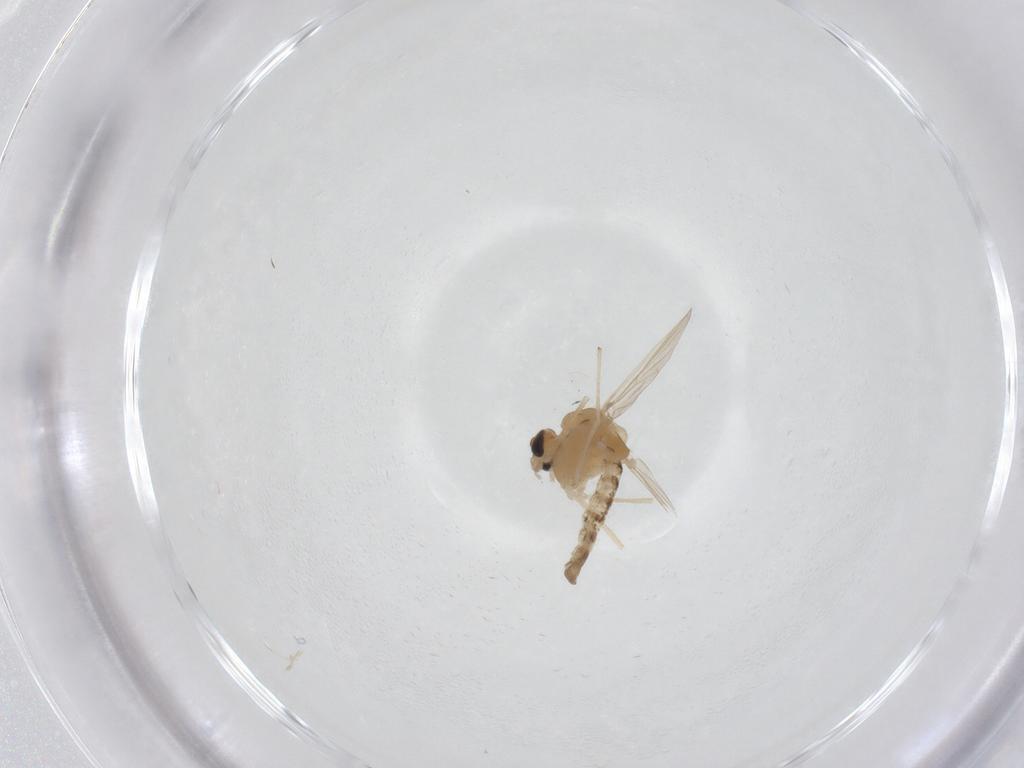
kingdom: Animalia
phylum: Arthropoda
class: Insecta
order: Diptera
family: Chironomidae
